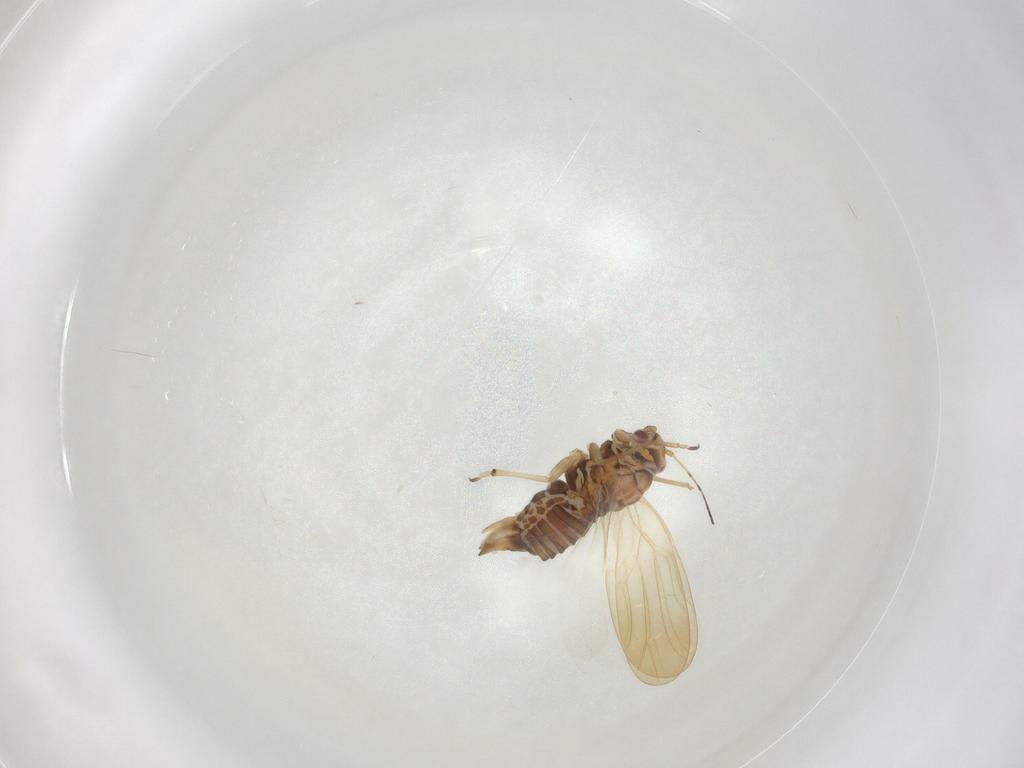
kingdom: Animalia
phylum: Arthropoda
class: Insecta
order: Hemiptera
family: Psylloidea_incertae_sedis
